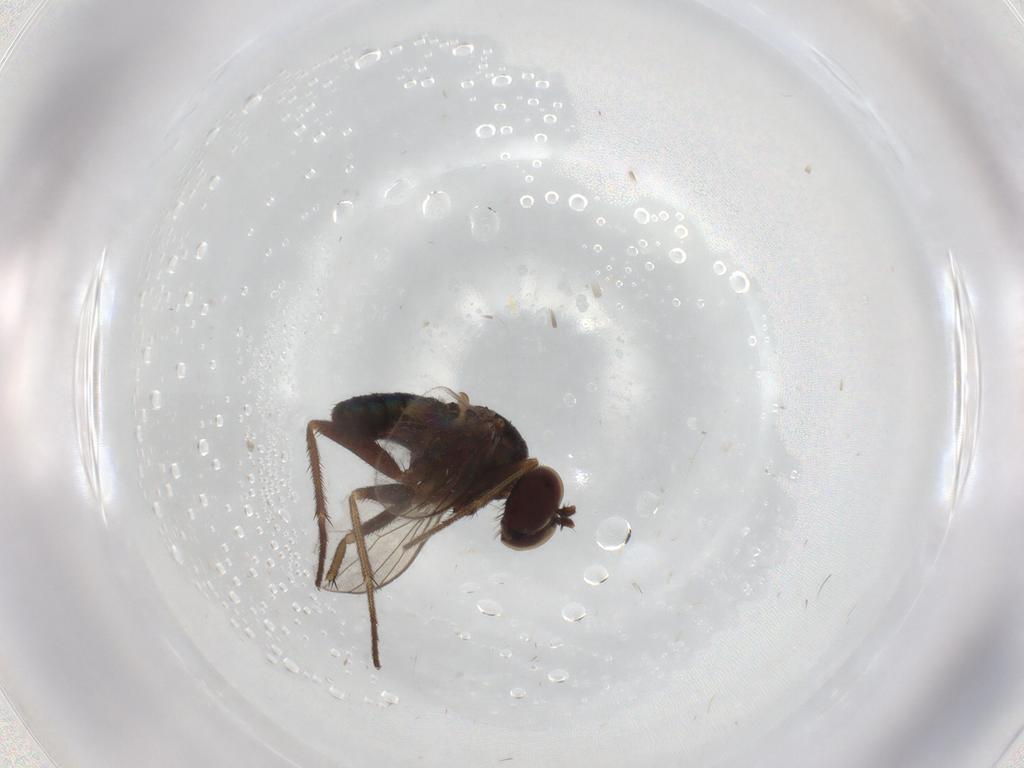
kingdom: Animalia
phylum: Arthropoda
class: Insecta
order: Diptera
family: Dolichopodidae
